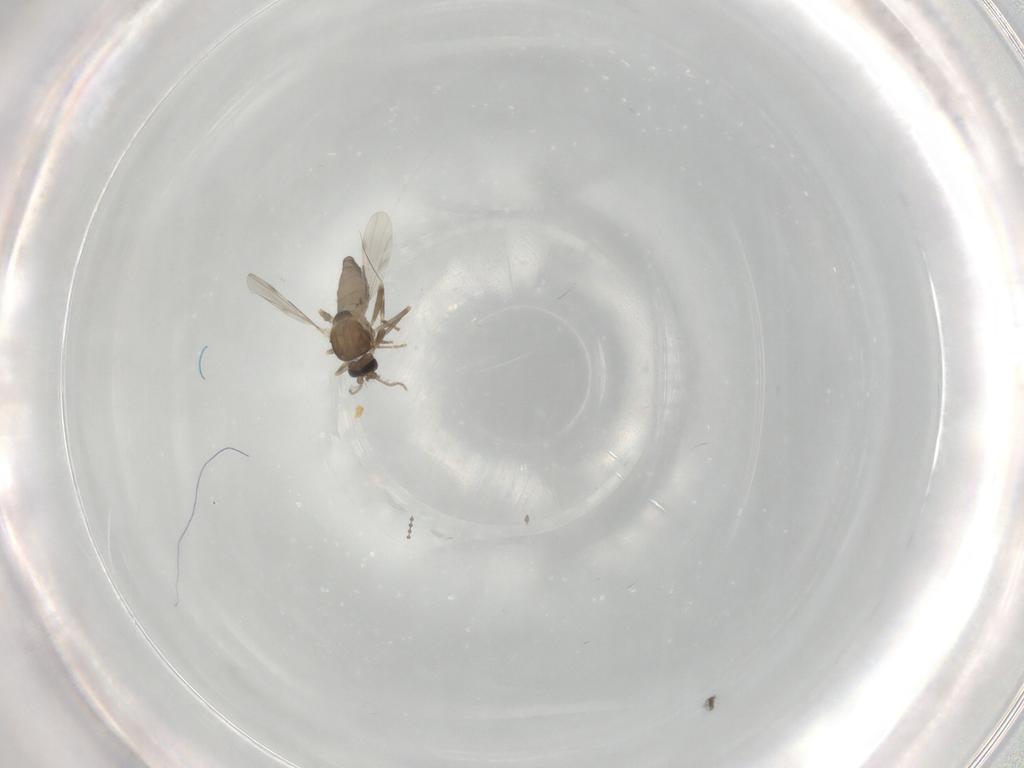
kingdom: Animalia
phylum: Arthropoda
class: Insecta
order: Diptera
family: Ceratopogonidae
